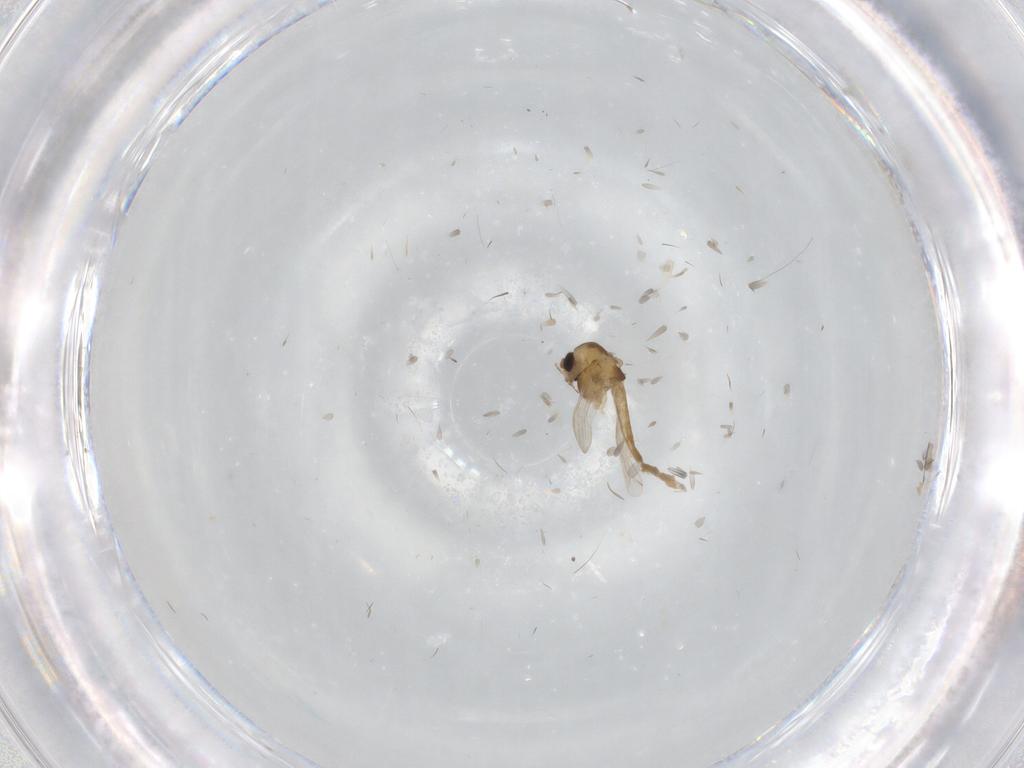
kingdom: Animalia
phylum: Arthropoda
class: Insecta
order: Diptera
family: Chironomidae
